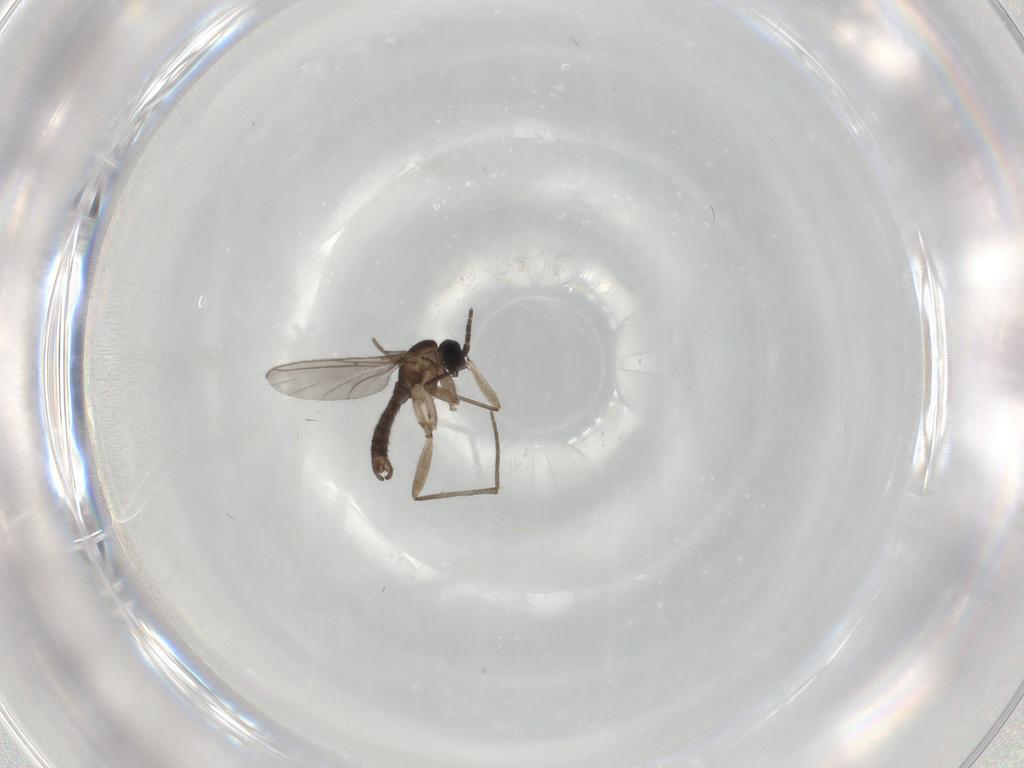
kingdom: Animalia
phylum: Arthropoda
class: Insecta
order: Diptera
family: Sciaridae
